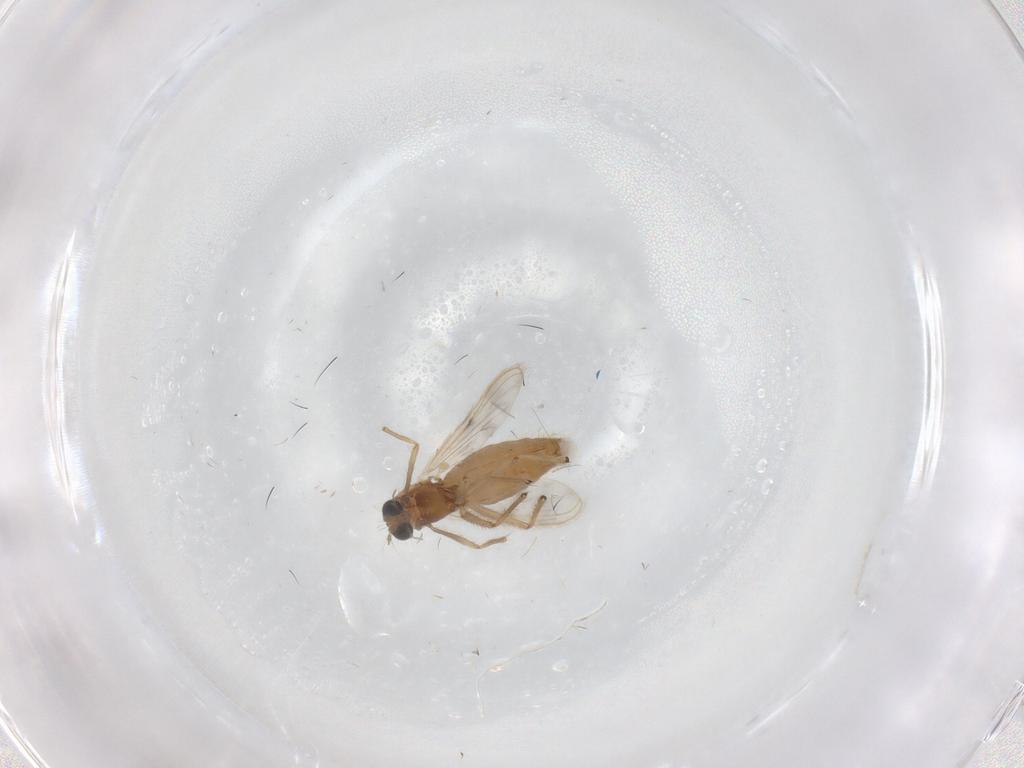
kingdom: Animalia
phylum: Arthropoda
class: Insecta
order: Diptera
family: Chironomidae
